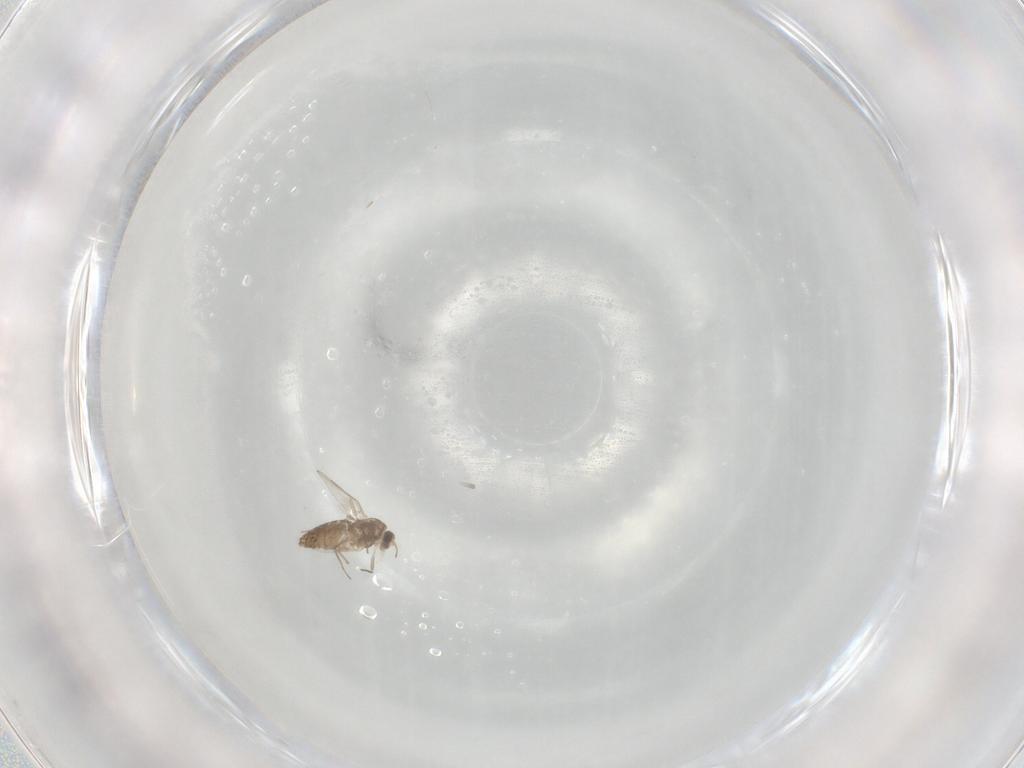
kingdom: Animalia
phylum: Arthropoda
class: Insecta
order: Diptera
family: Chironomidae
